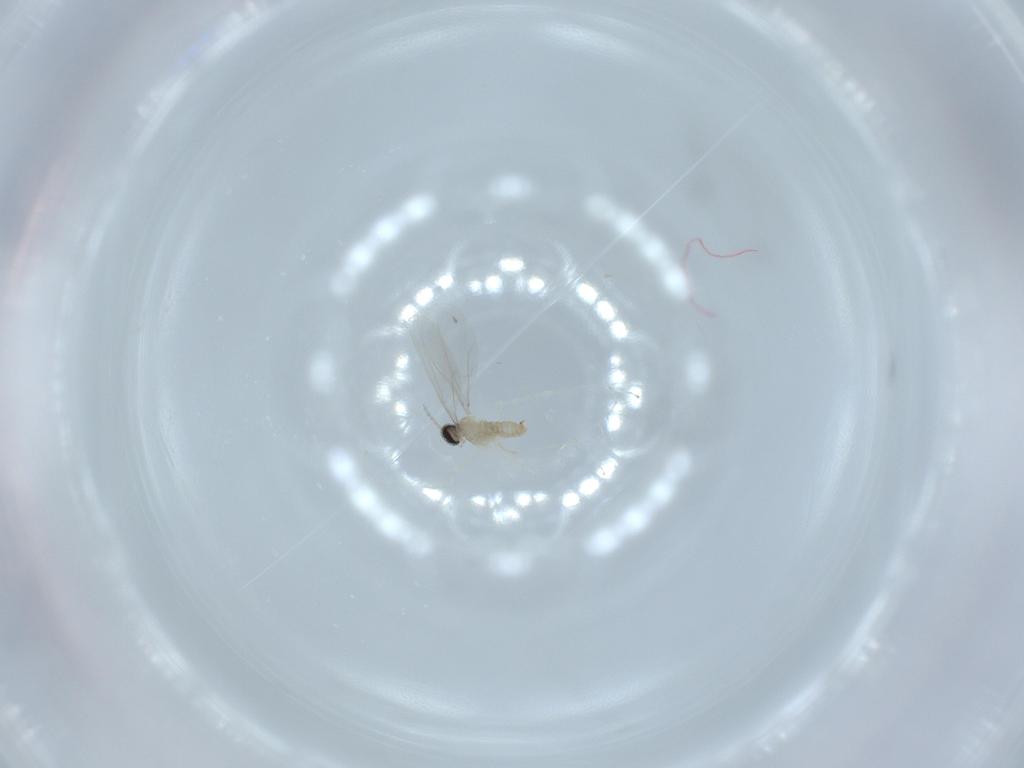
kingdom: Animalia
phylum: Arthropoda
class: Insecta
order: Diptera
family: Cecidomyiidae
